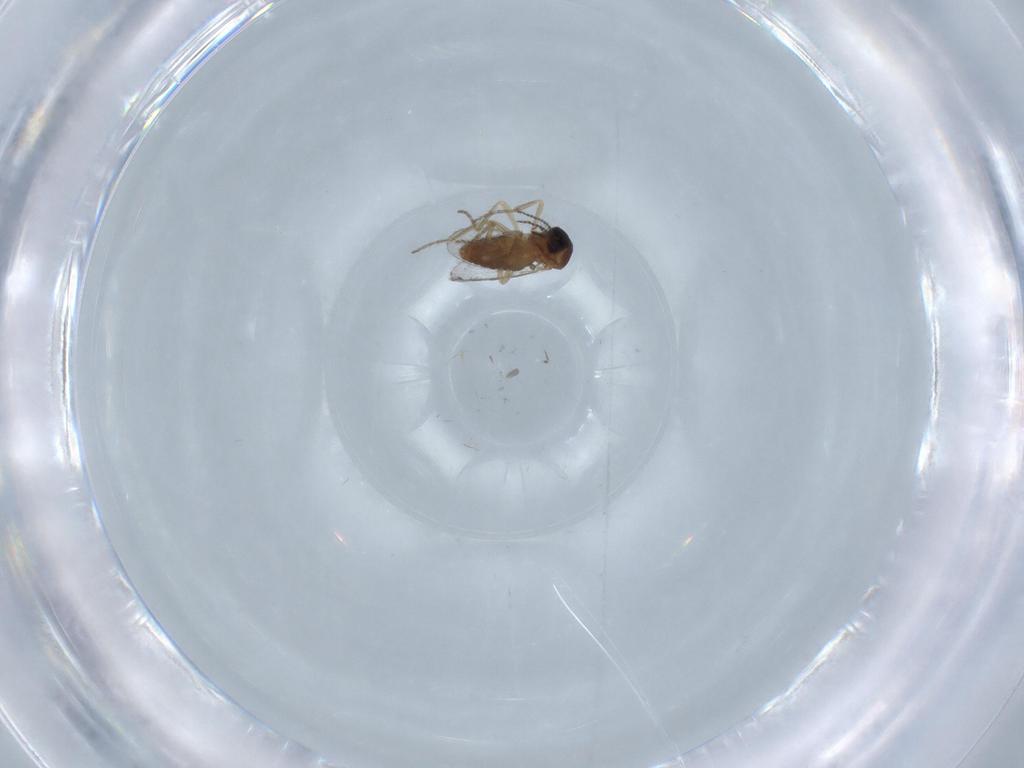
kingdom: Animalia
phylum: Arthropoda
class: Insecta
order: Diptera
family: Ceratopogonidae
